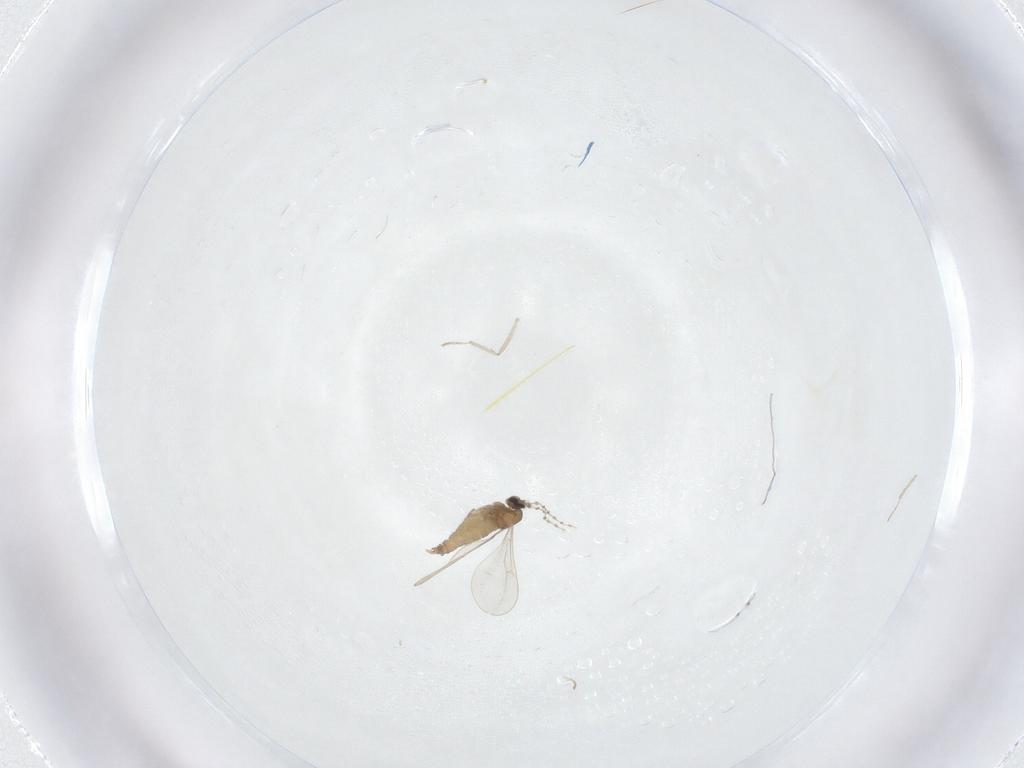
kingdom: Animalia
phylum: Arthropoda
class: Insecta
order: Diptera
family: Cecidomyiidae
